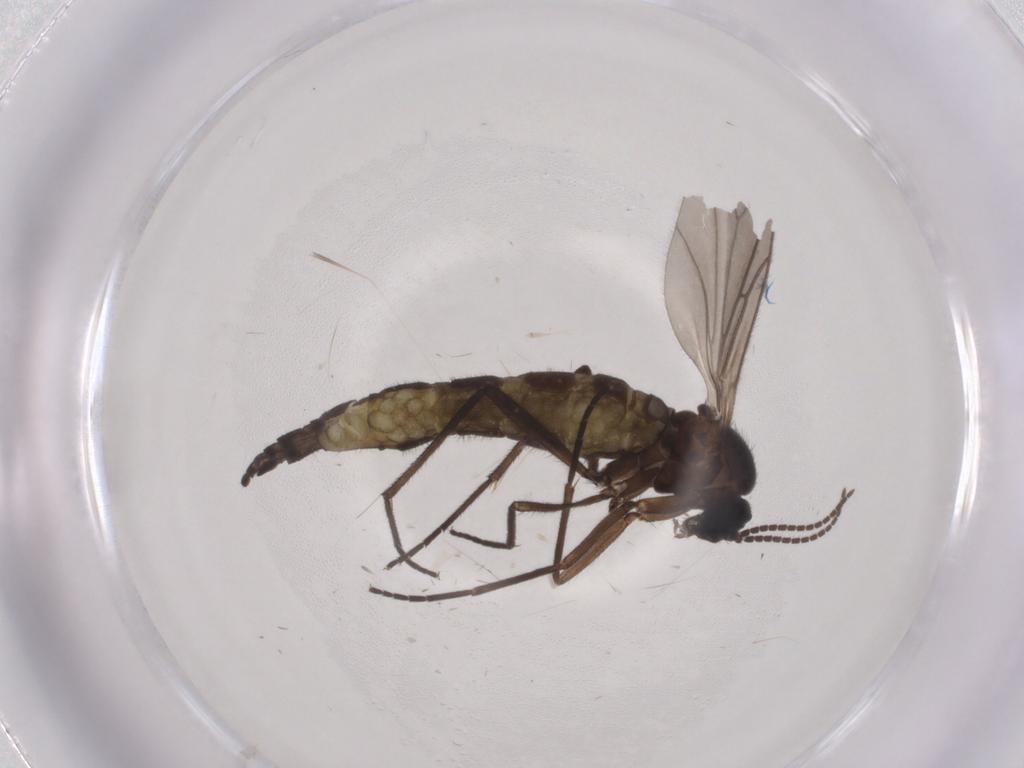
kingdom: Animalia
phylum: Arthropoda
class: Insecta
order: Diptera
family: Sciaridae
